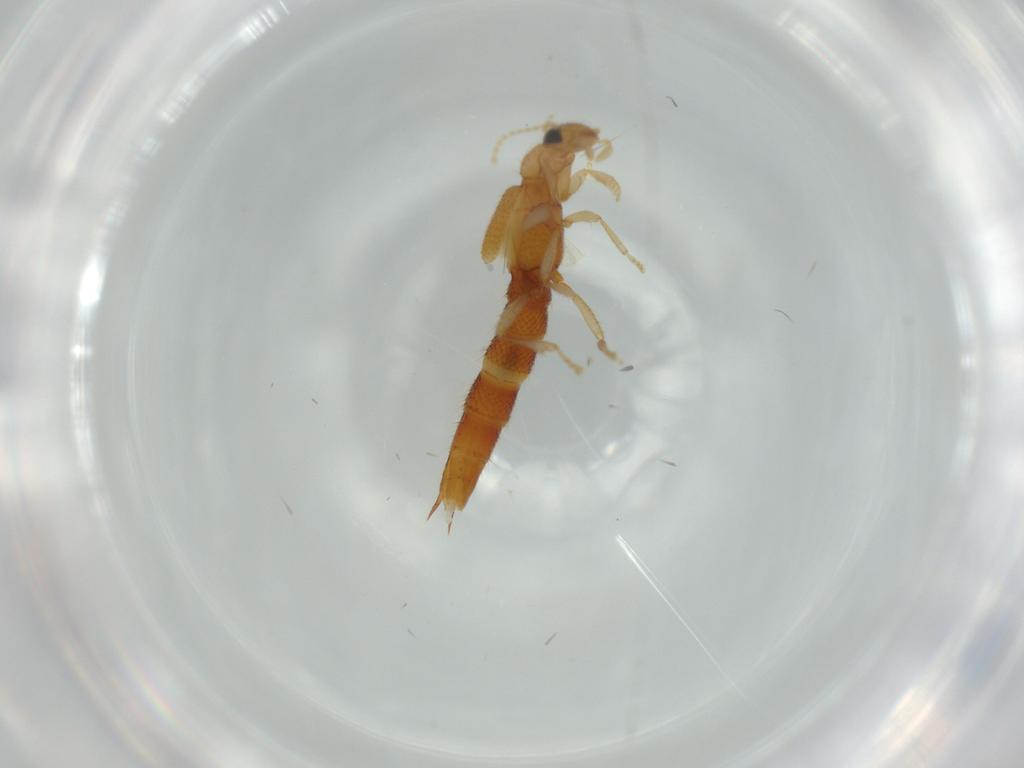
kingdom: Animalia
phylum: Arthropoda
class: Insecta
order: Coleoptera
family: Staphylinidae
